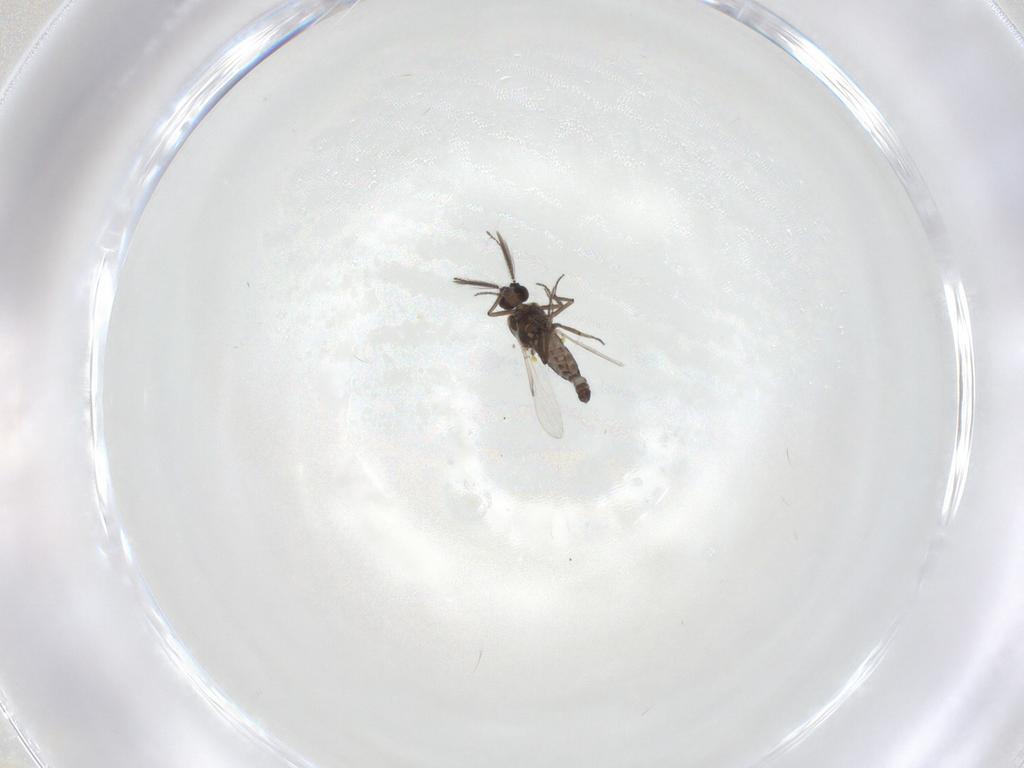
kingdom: Animalia
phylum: Arthropoda
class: Insecta
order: Diptera
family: Ceratopogonidae
